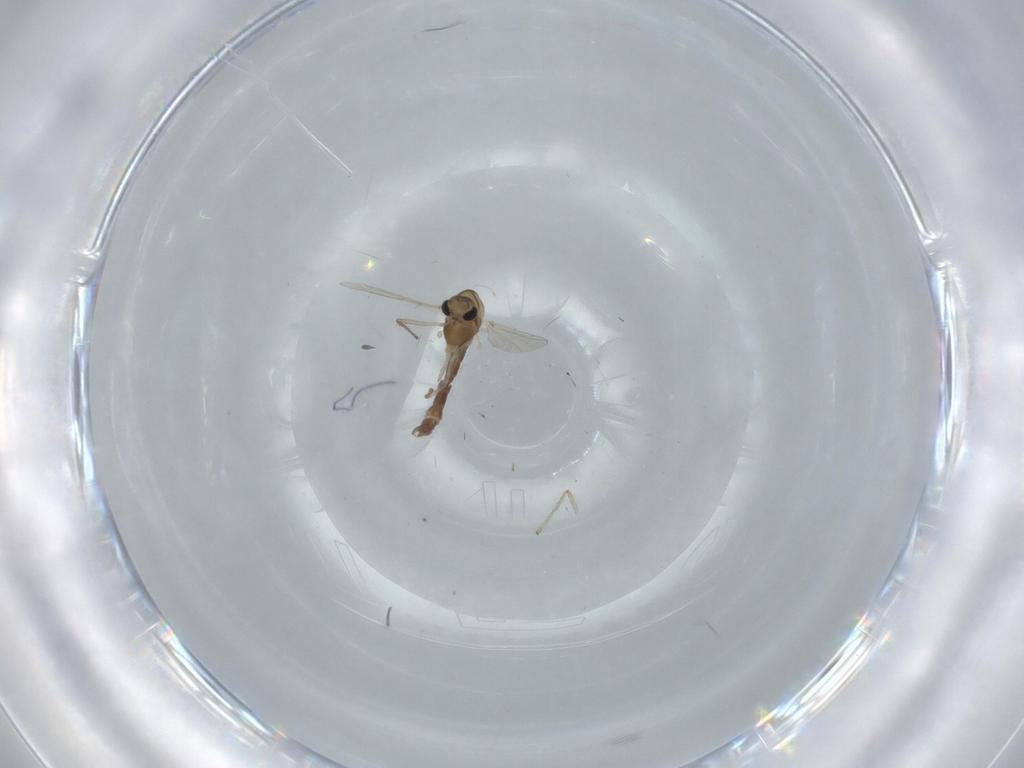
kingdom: Animalia
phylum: Arthropoda
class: Insecta
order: Diptera
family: Chironomidae
